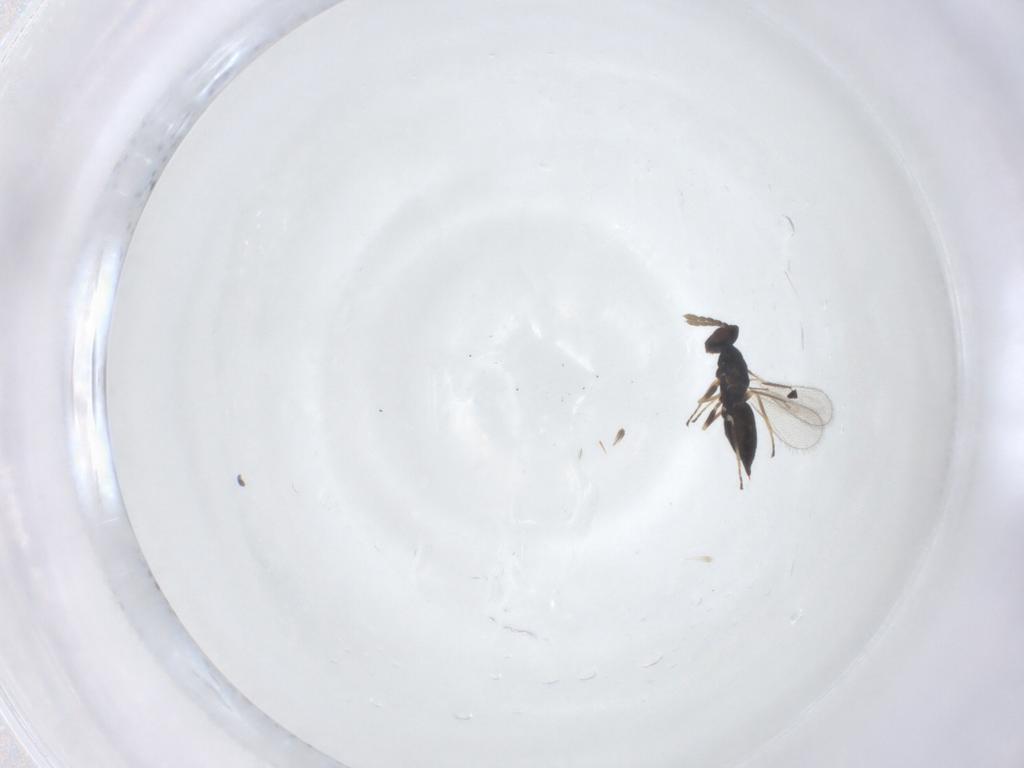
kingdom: Animalia
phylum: Arthropoda
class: Insecta
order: Hymenoptera
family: Eulophidae
